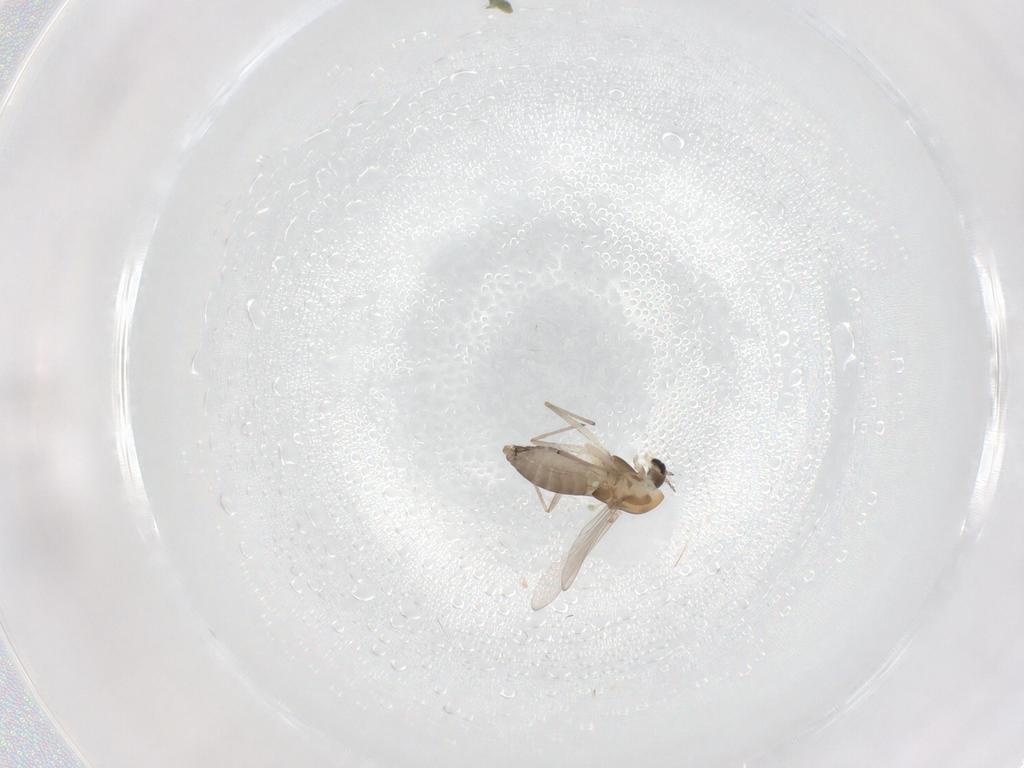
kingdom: Animalia
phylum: Arthropoda
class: Insecta
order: Diptera
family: Chironomidae
